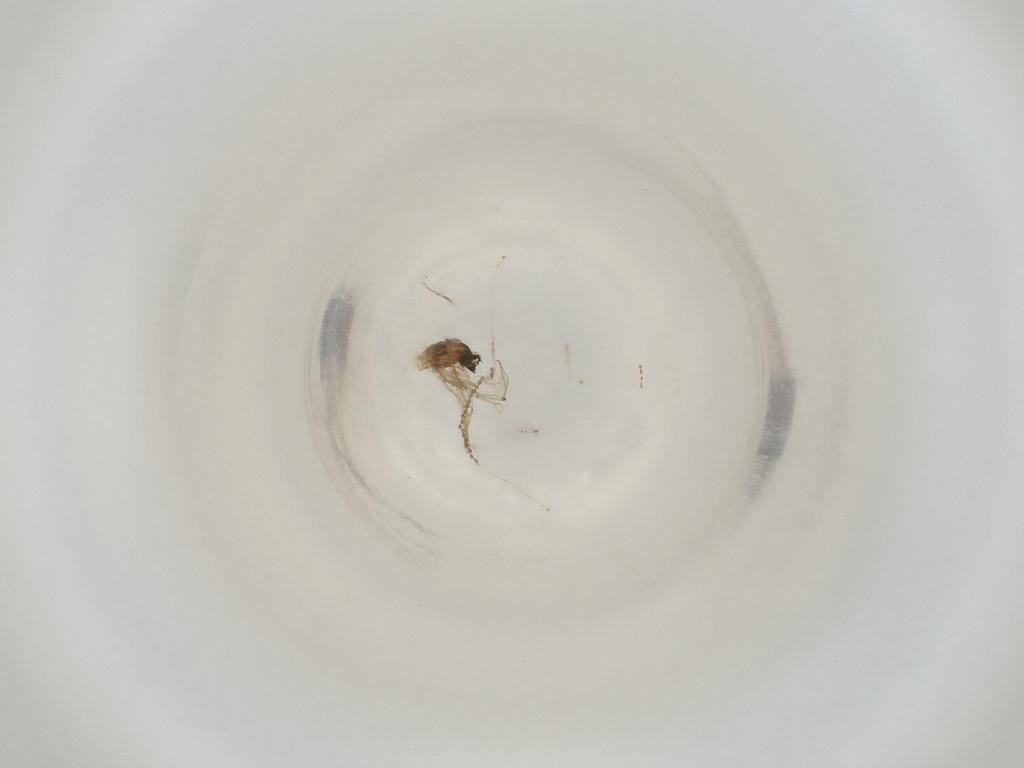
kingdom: Animalia
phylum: Arthropoda
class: Insecta
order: Diptera
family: Cecidomyiidae
